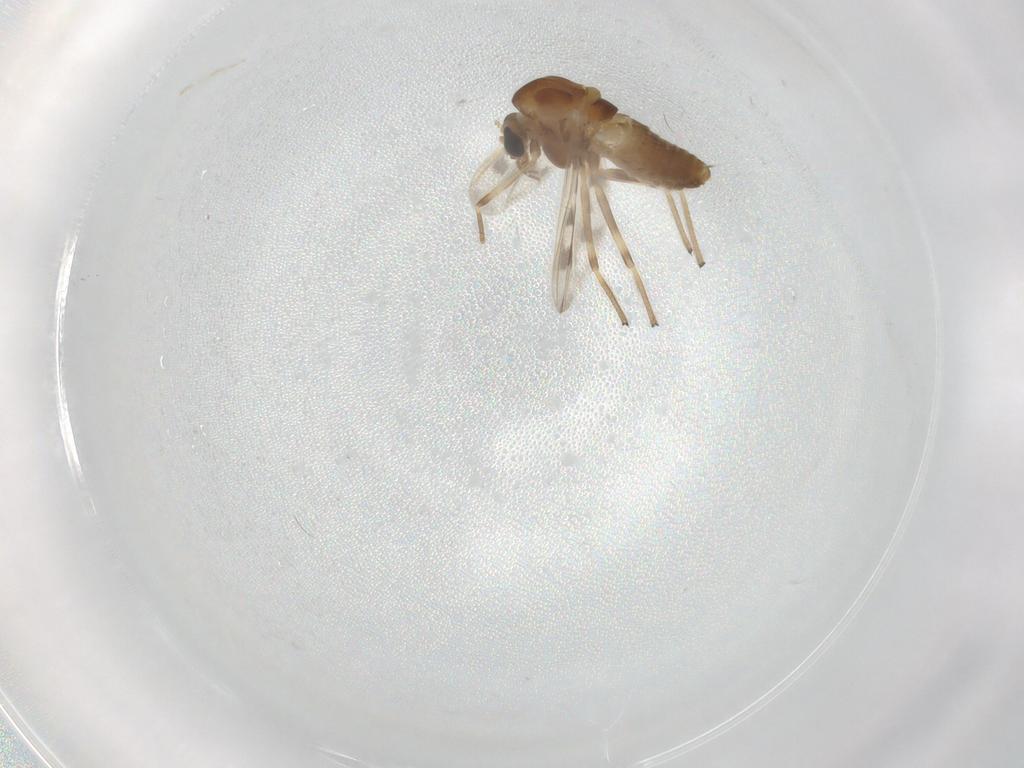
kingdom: Animalia
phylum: Arthropoda
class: Insecta
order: Diptera
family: Chironomidae
